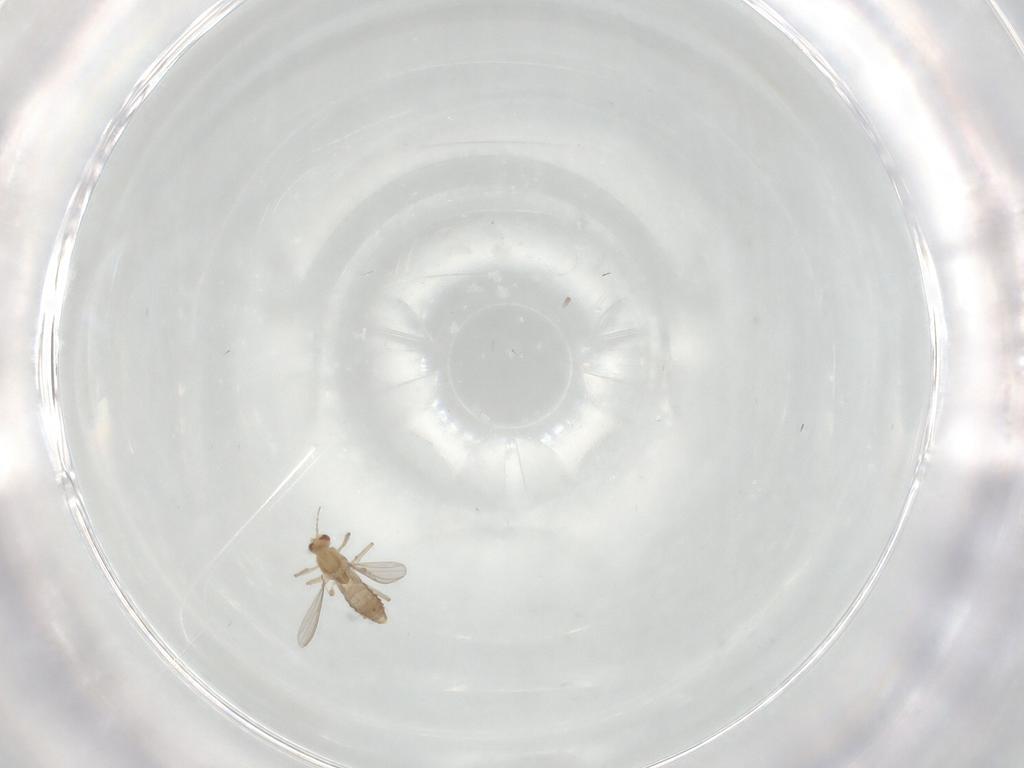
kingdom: Animalia
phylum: Arthropoda
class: Insecta
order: Diptera
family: Chironomidae
